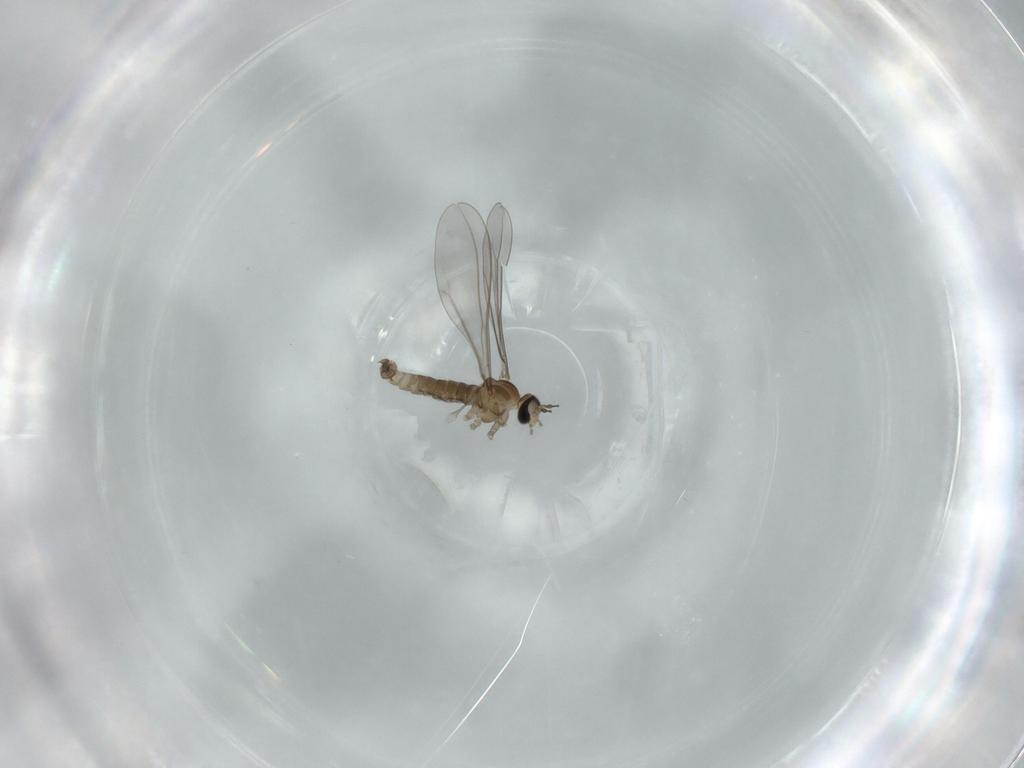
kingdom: Animalia
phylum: Arthropoda
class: Insecta
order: Diptera
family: Cecidomyiidae
